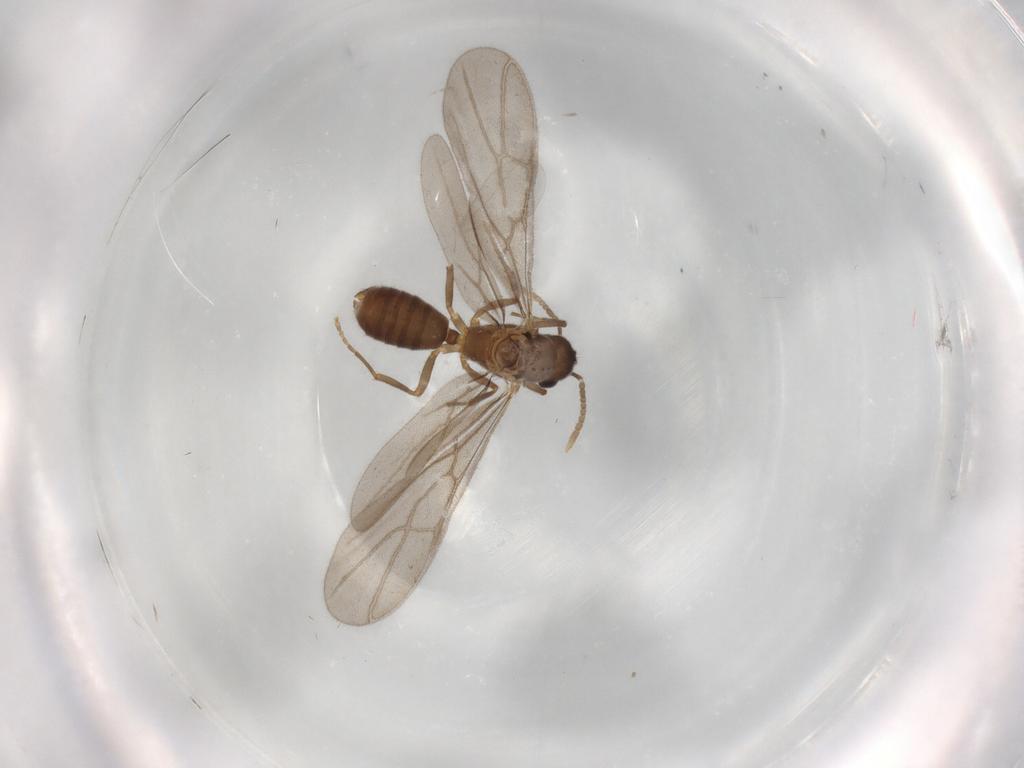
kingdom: Animalia
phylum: Arthropoda
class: Insecta
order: Hymenoptera
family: Formicidae
